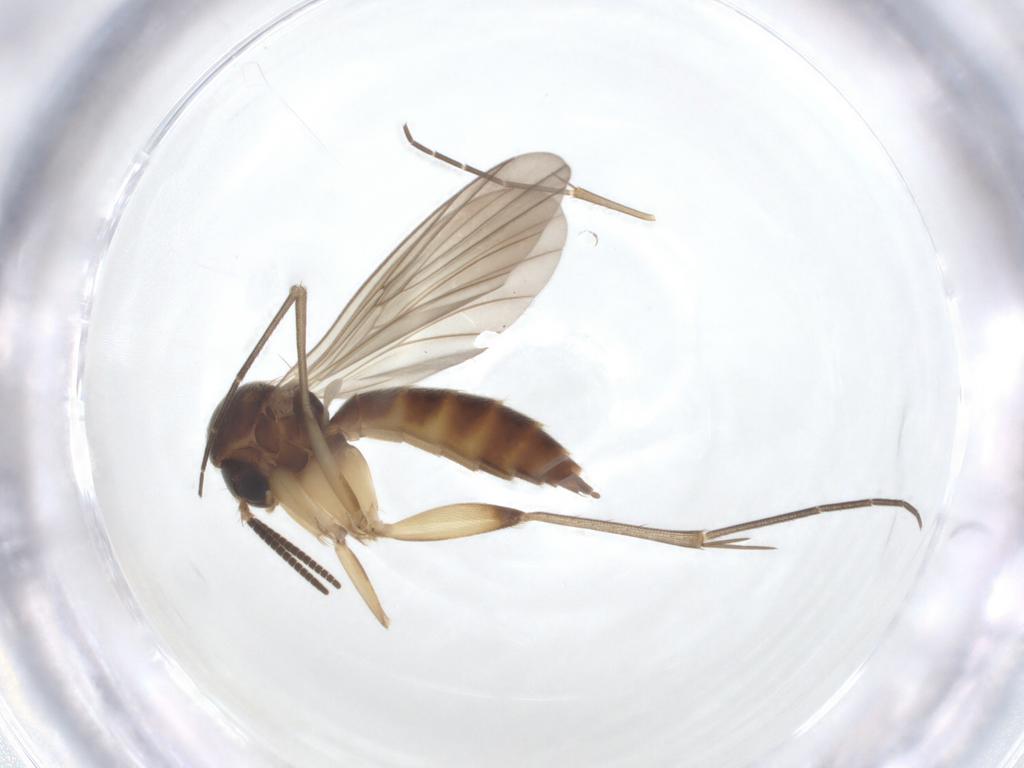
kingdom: Animalia
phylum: Arthropoda
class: Insecta
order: Diptera
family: Mycetophilidae
